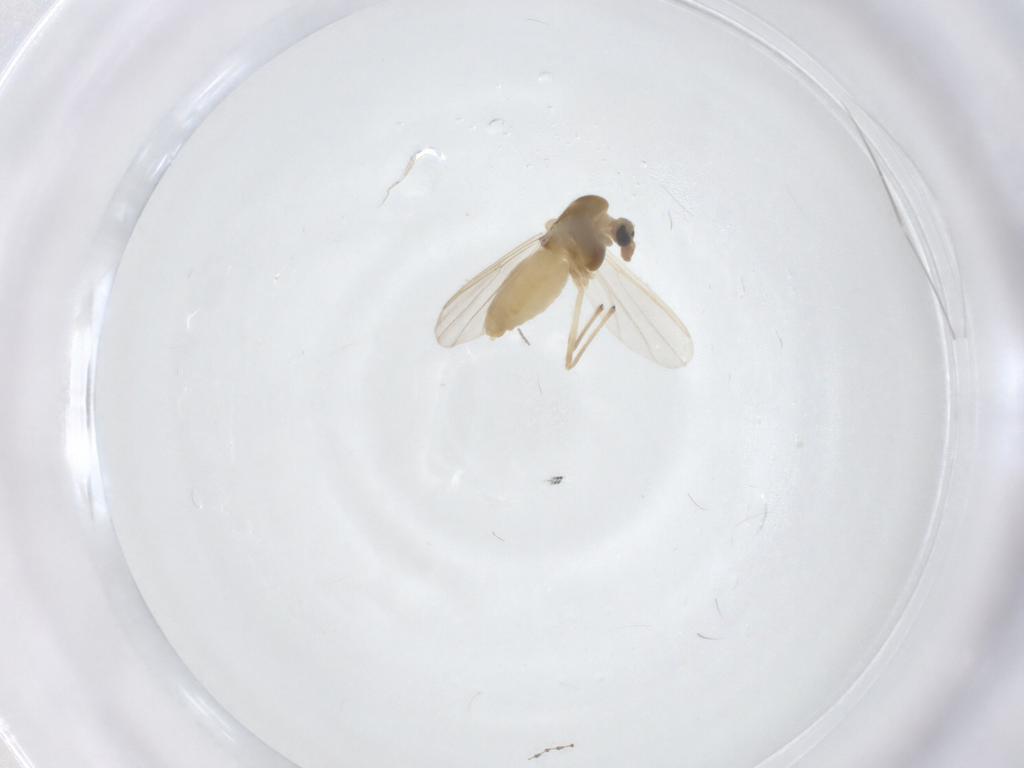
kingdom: Animalia
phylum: Arthropoda
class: Insecta
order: Diptera
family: Chironomidae
